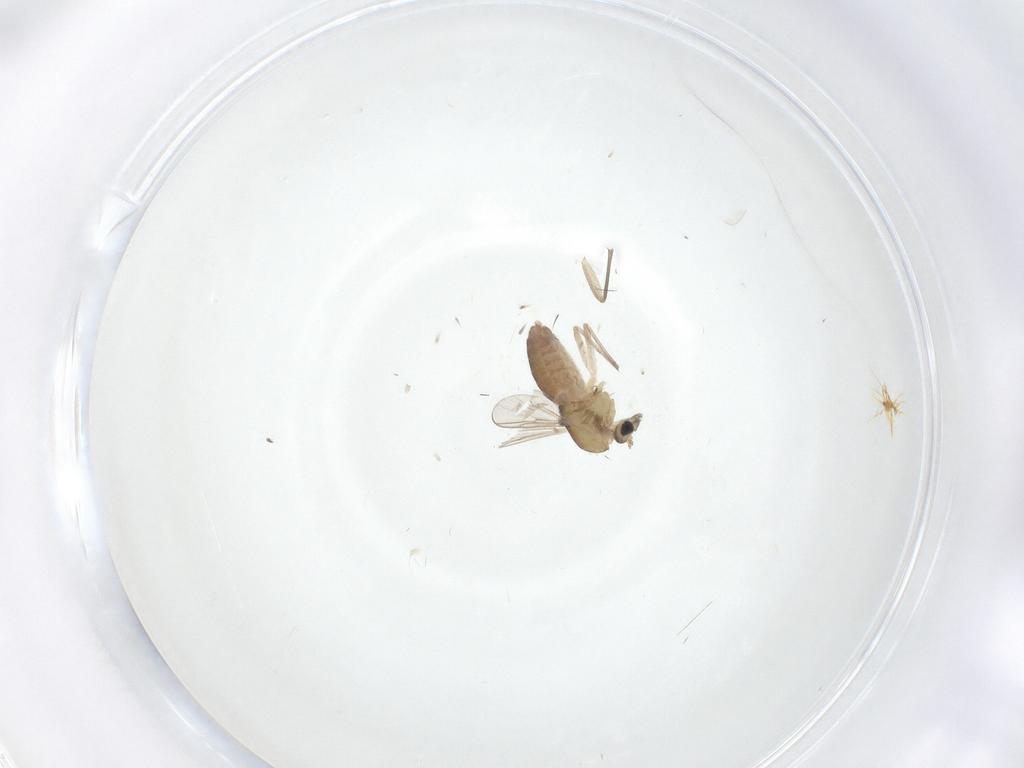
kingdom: Animalia
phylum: Arthropoda
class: Insecta
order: Diptera
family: Chironomidae
